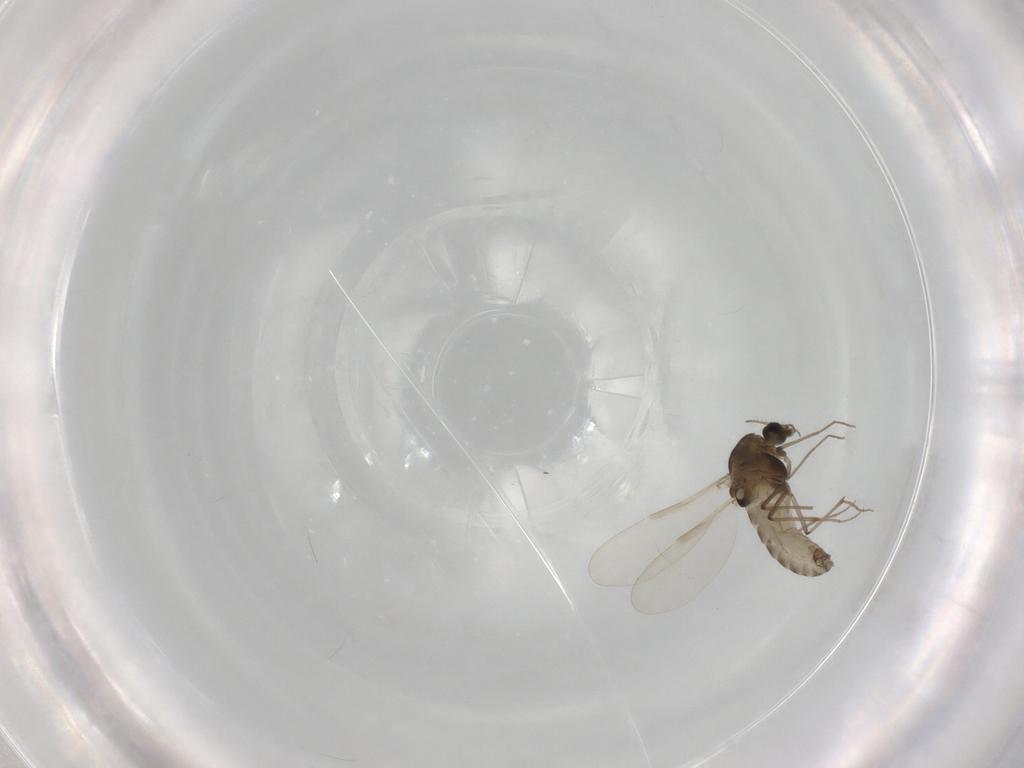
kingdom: Animalia
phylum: Arthropoda
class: Insecta
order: Diptera
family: Chironomidae
